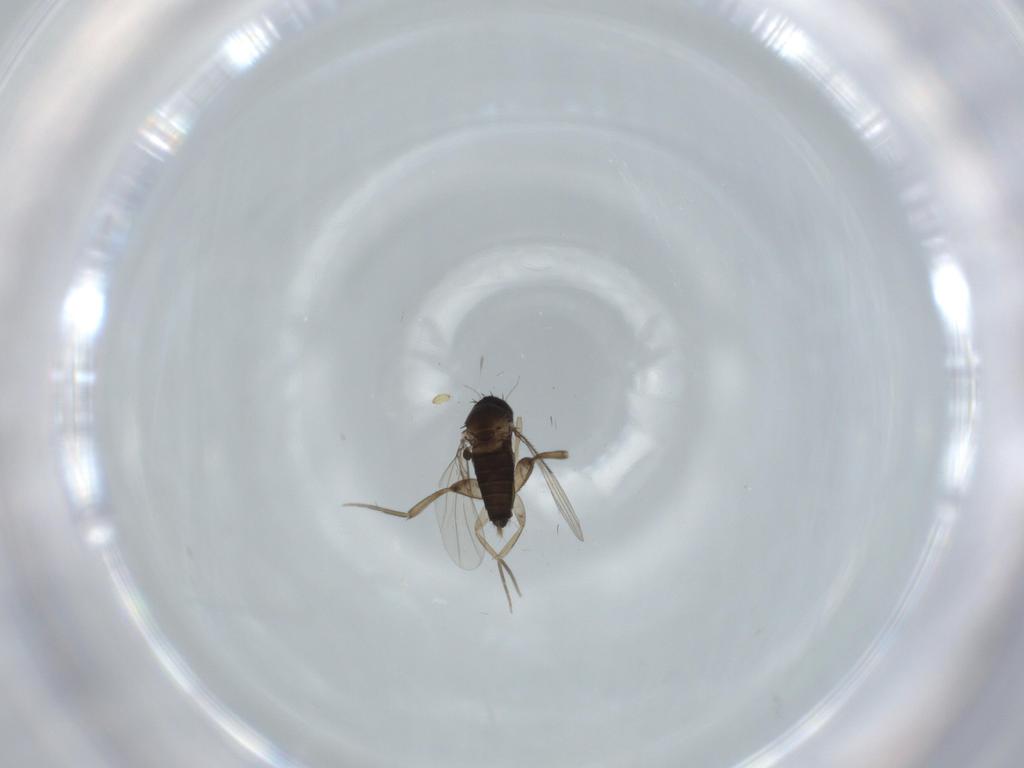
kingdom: Animalia
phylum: Arthropoda
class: Insecta
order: Diptera
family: Phoridae
